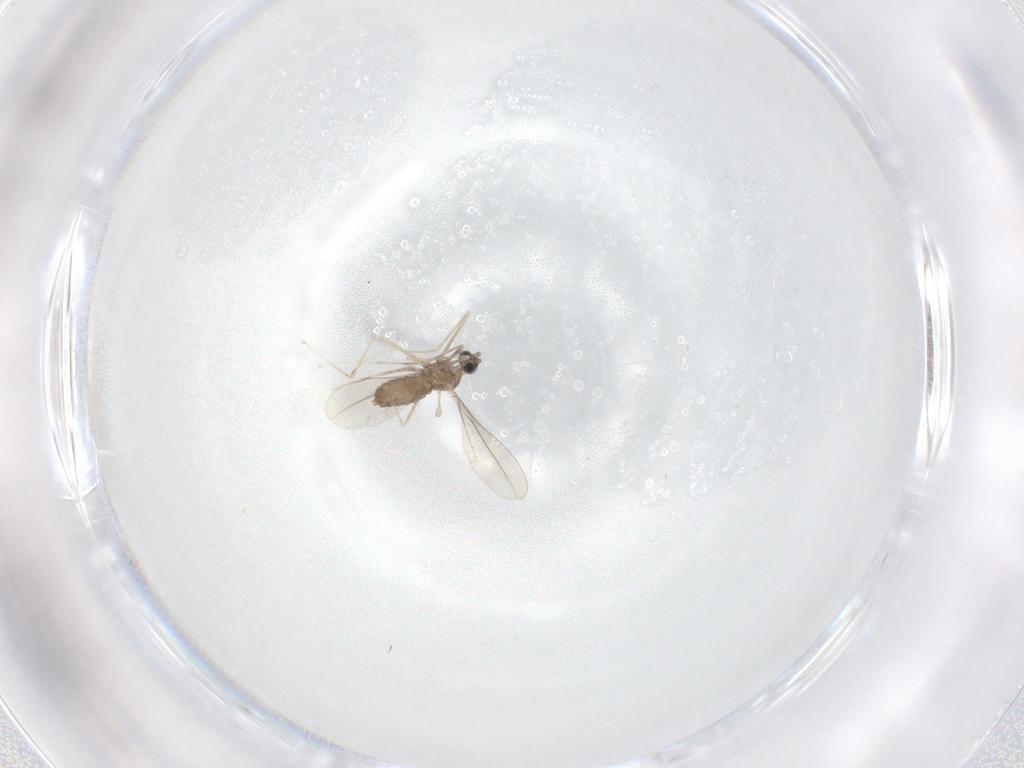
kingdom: Animalia
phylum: Arthropoda
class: Insecta
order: Diptera
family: Cecidomyiidae
